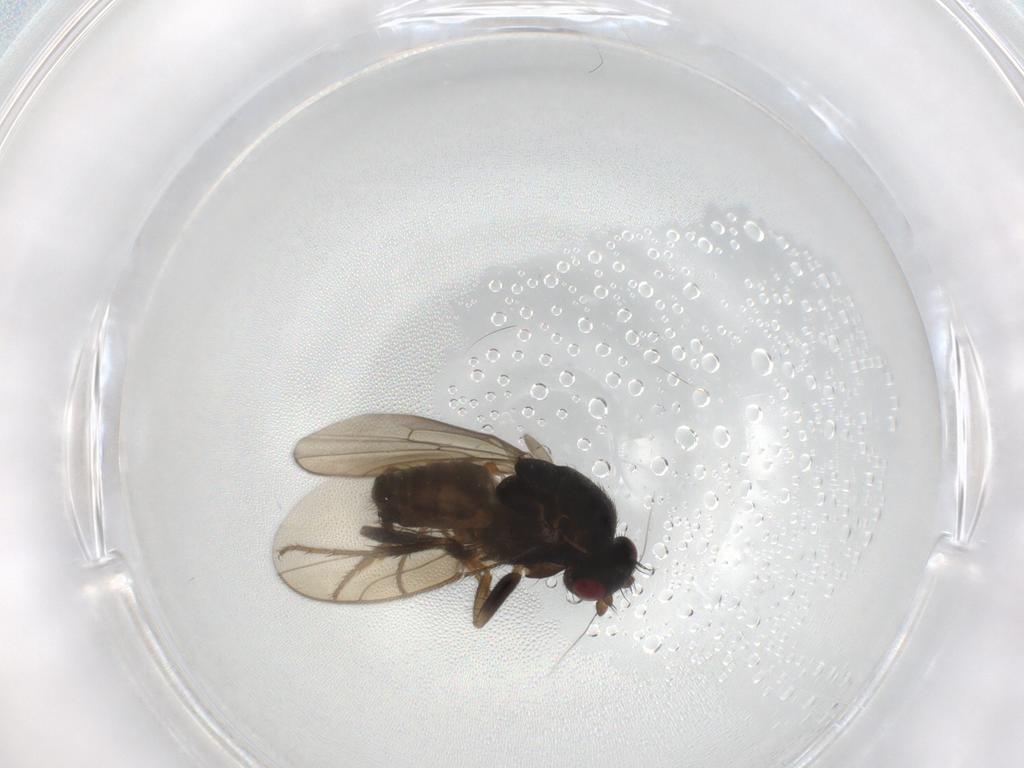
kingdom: Animalia
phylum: Arthropoda
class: Insecta
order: Diptera
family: Sphaeroceridae
